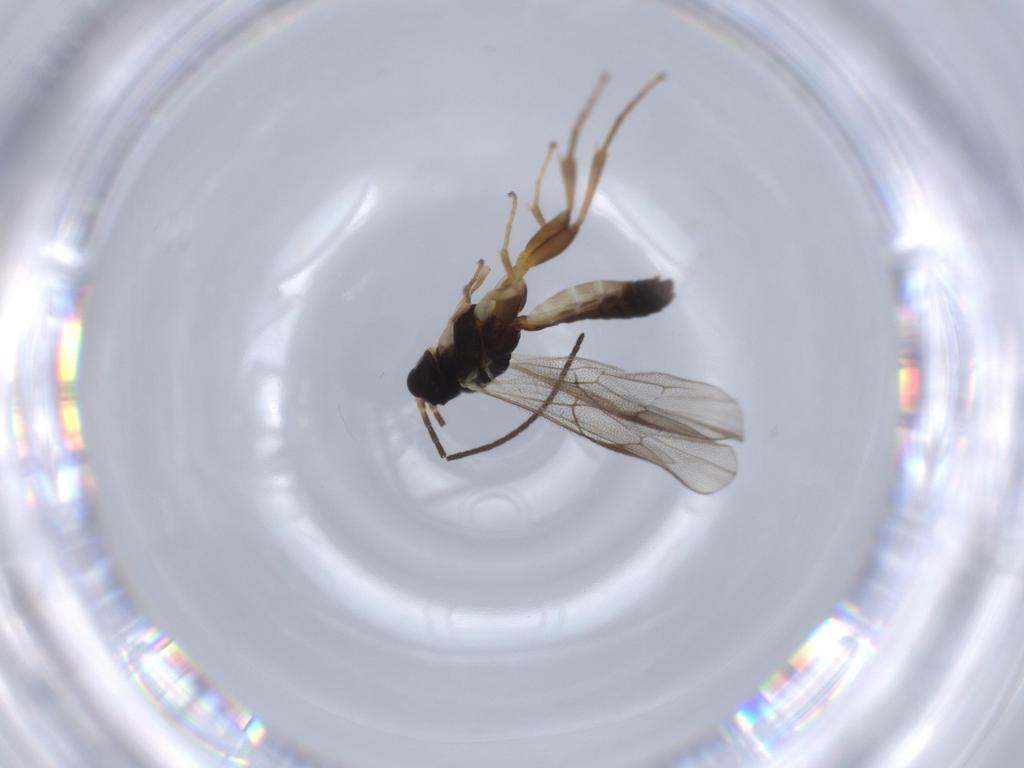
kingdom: Animalia
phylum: Arthropoda
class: Insecta
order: Hymenoptera
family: Ichneumonidae
